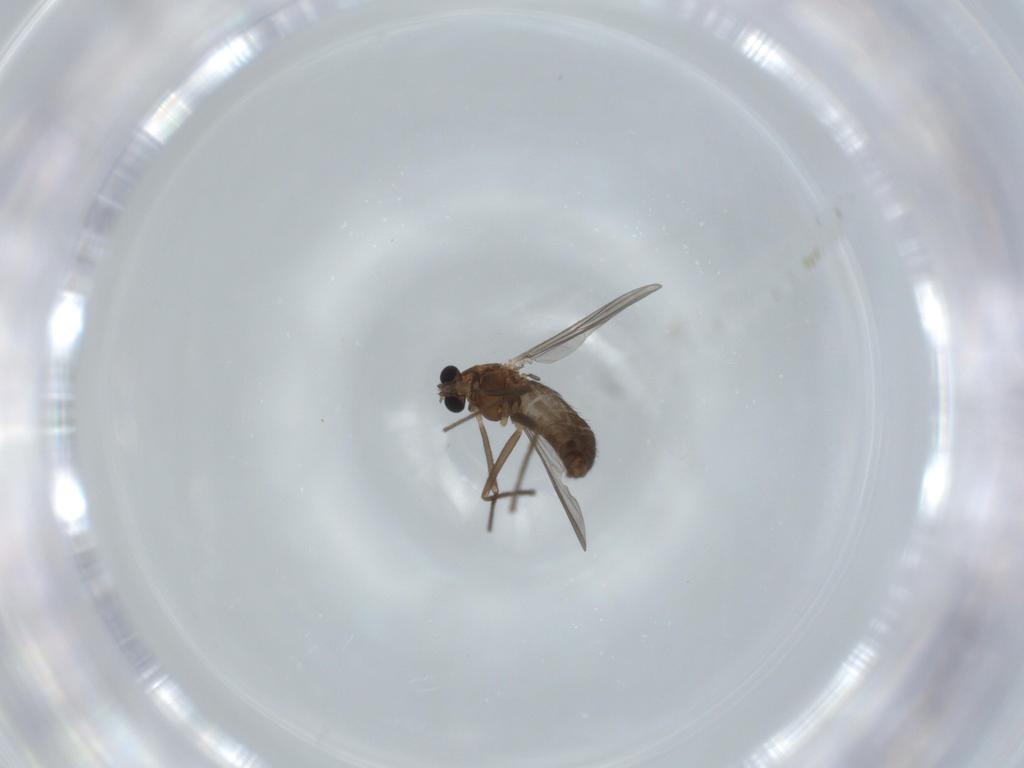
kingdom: Animalia
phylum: Arthropoda
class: Insecta
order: Diptera
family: Chironomidae
